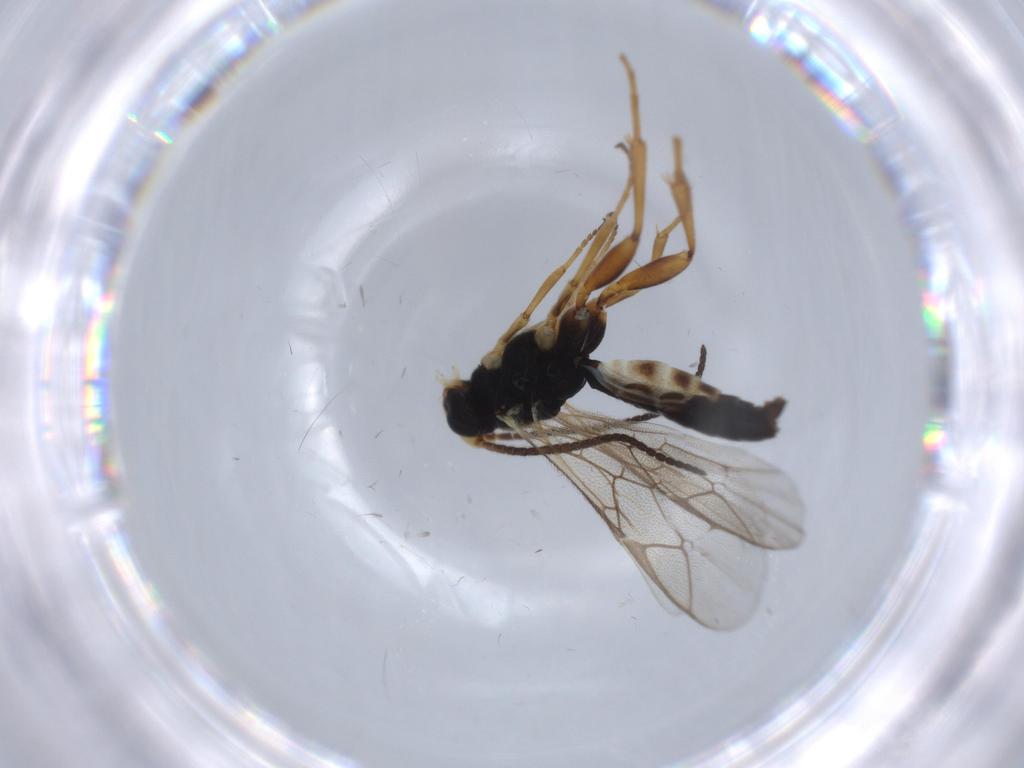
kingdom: Animalia
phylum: Arthropoda
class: Insecta
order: Hymenoptera
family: Ichneumonidae
